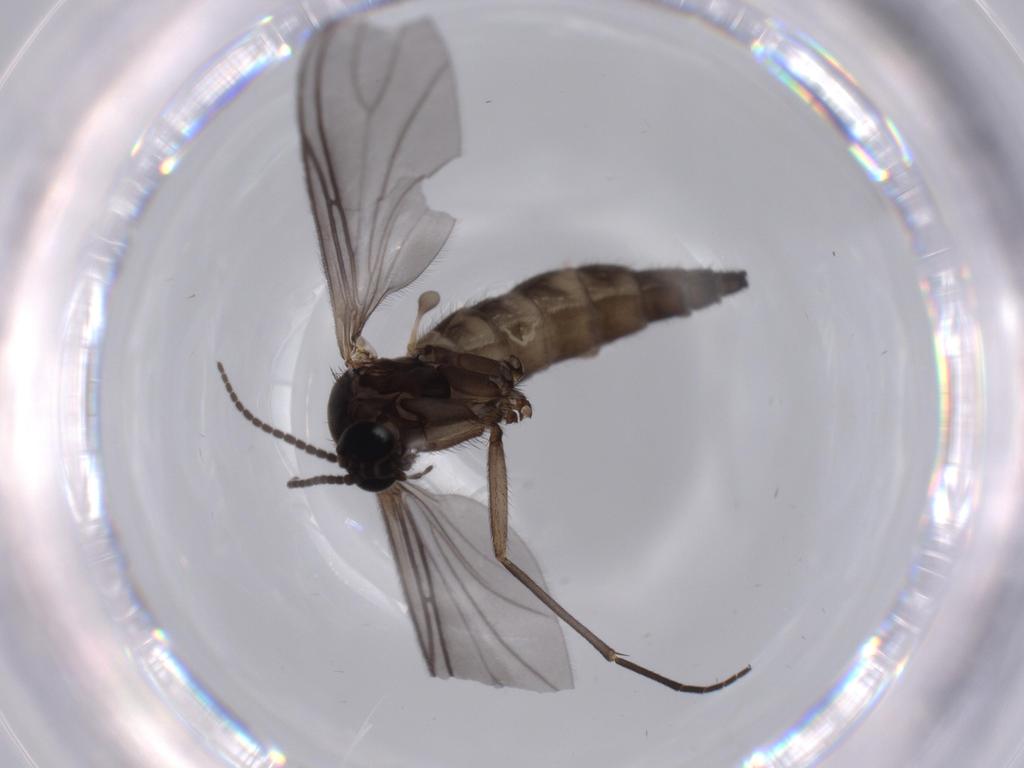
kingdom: Animalia
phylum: Arthropoda
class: Insecta
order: Diptera
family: Sciaridae
